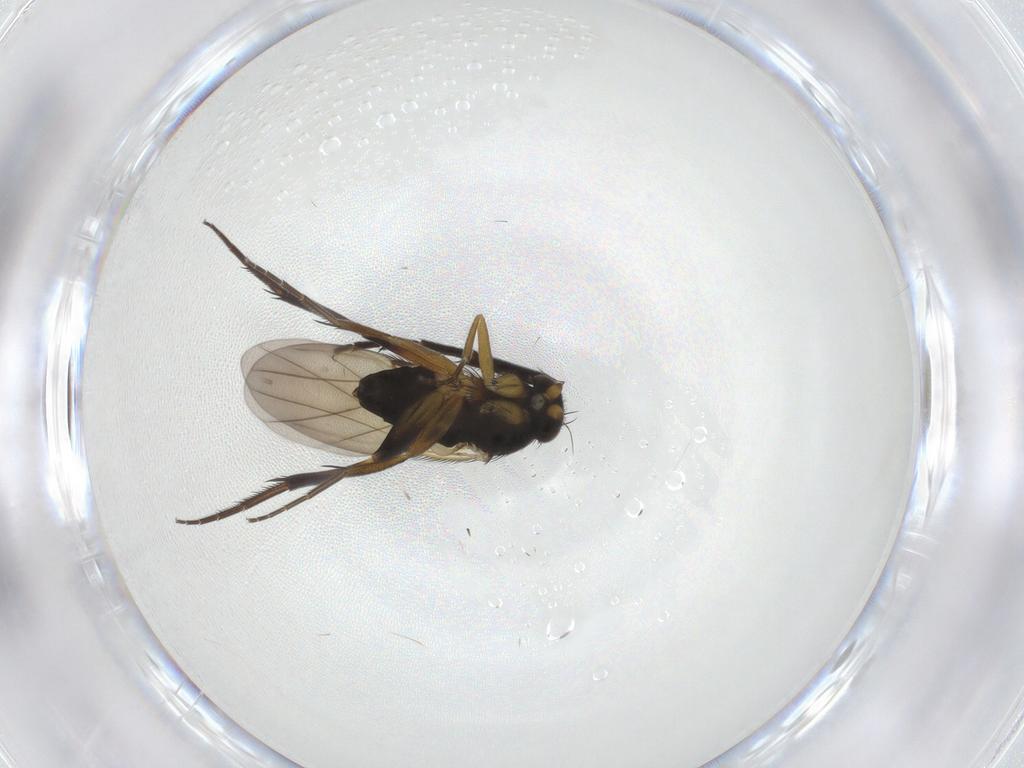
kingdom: Animalia
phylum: Arthropoda
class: Insecta
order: Diptera
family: Phoridae
